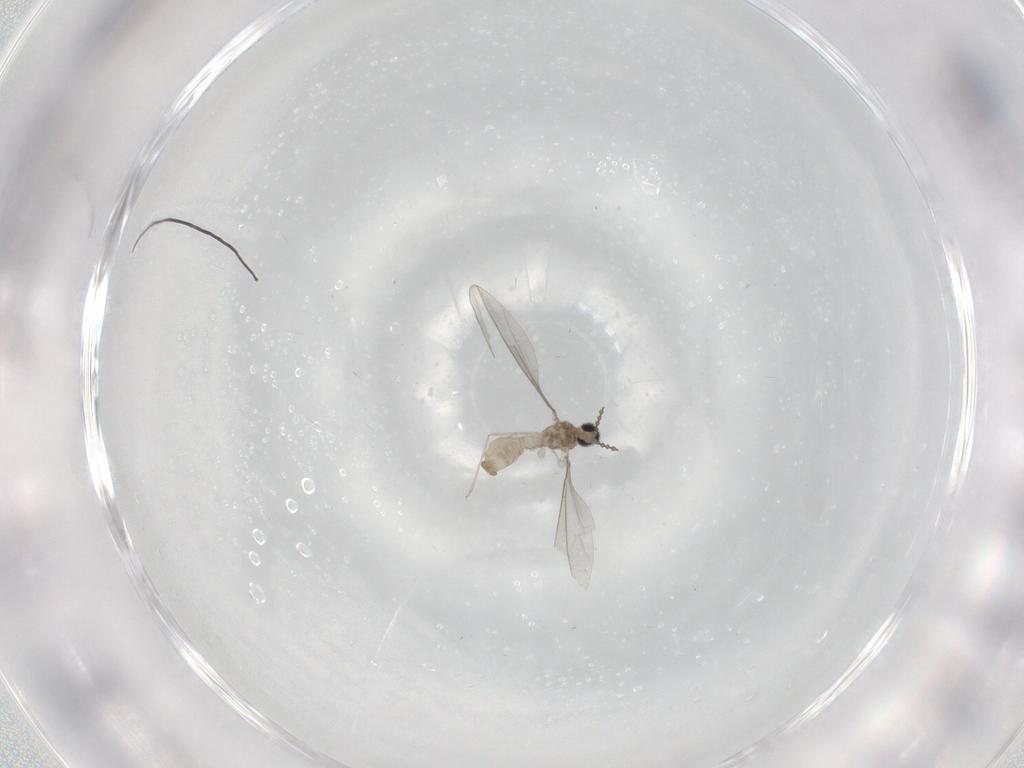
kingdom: Animalia
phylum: Arthropoda
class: Insecta
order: Diptera
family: Cecidomyiidae
